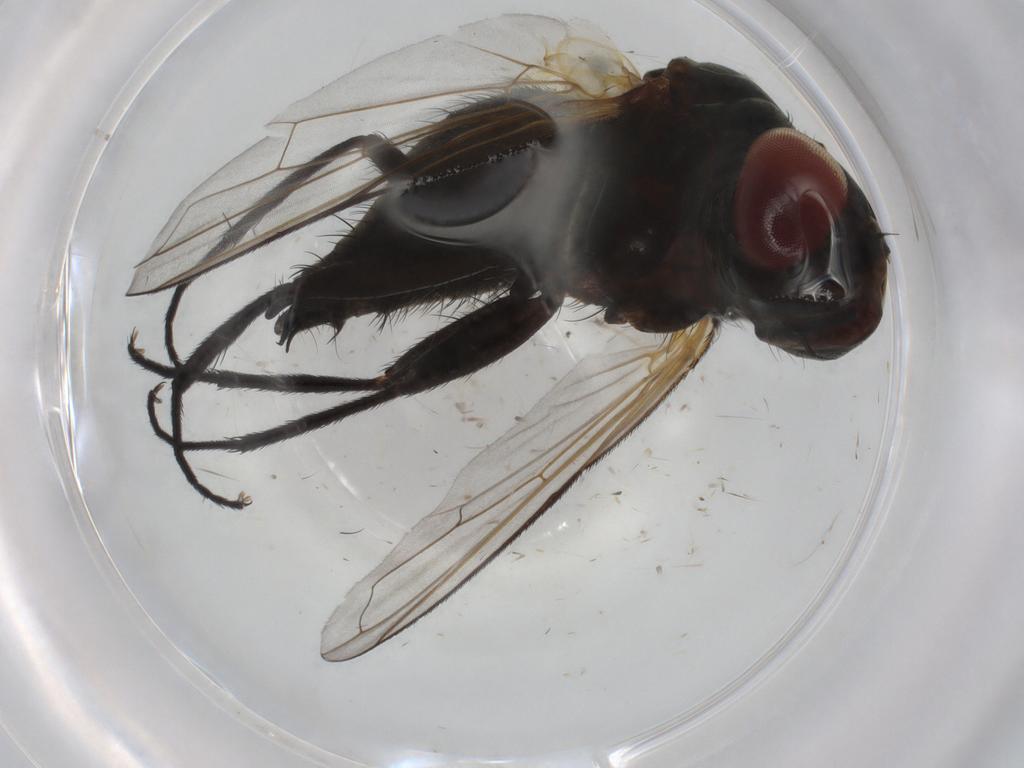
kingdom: Animalia
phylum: Arthropoda
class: Insecta
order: Diptera
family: Tachinidae
